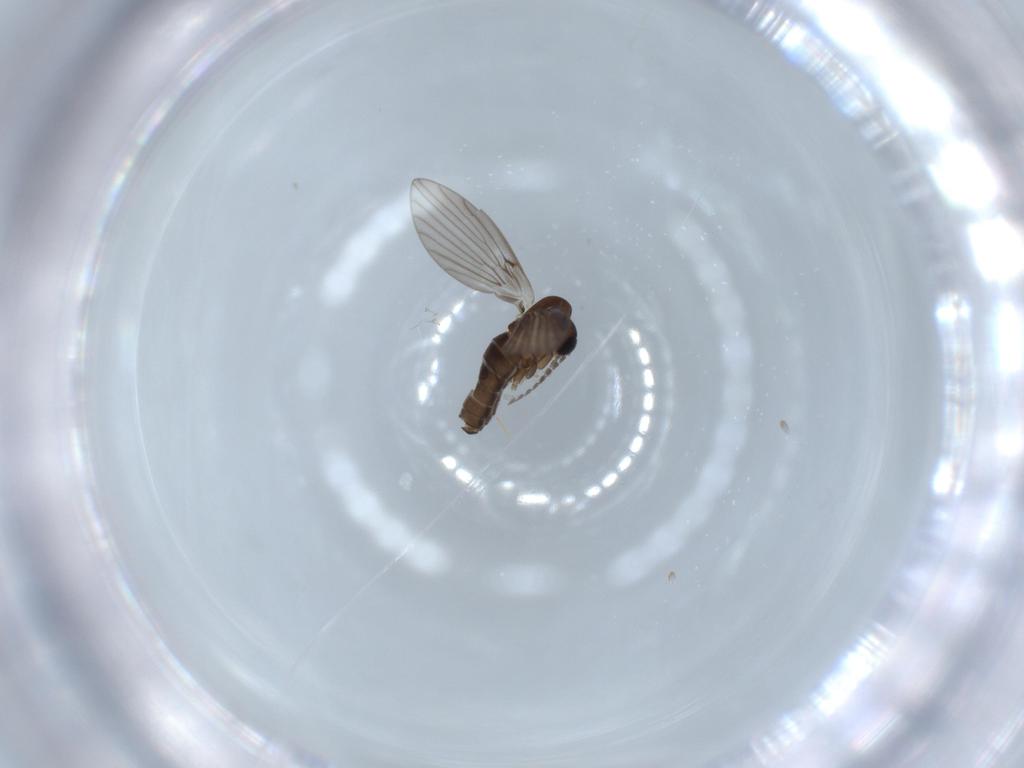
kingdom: Animalia
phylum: Arthropoda
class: Insecta
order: Diptera
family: Psychodidae
